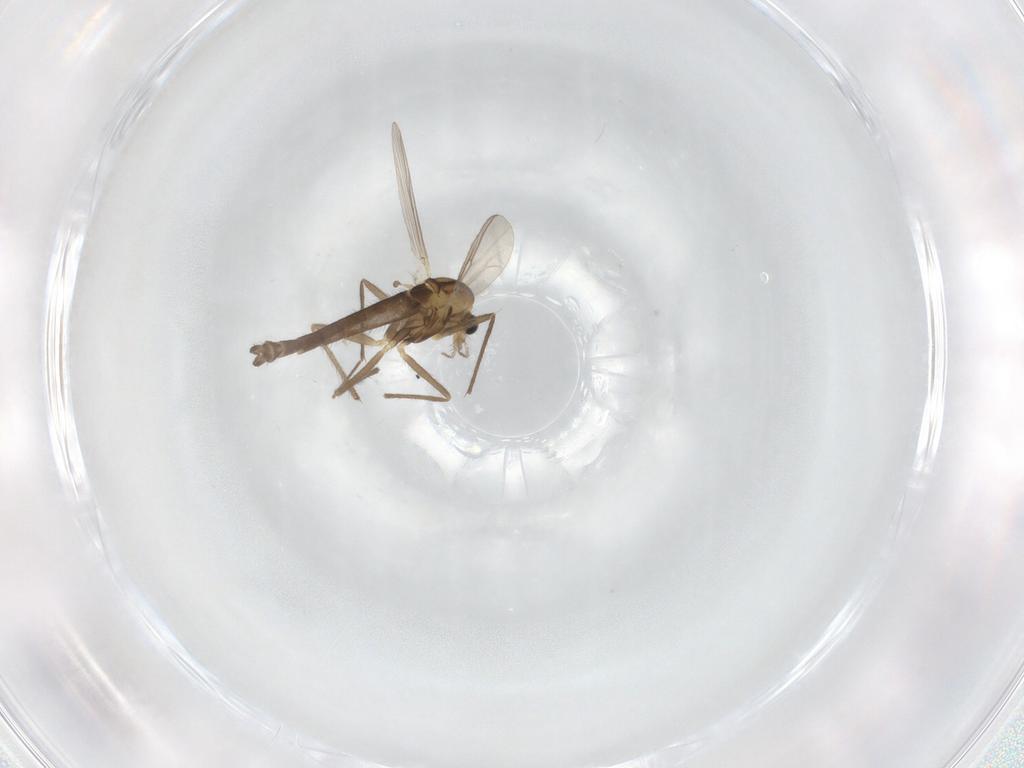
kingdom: Animalia
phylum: Arthropoda
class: Insecta
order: Diptera
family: Chironomidae
